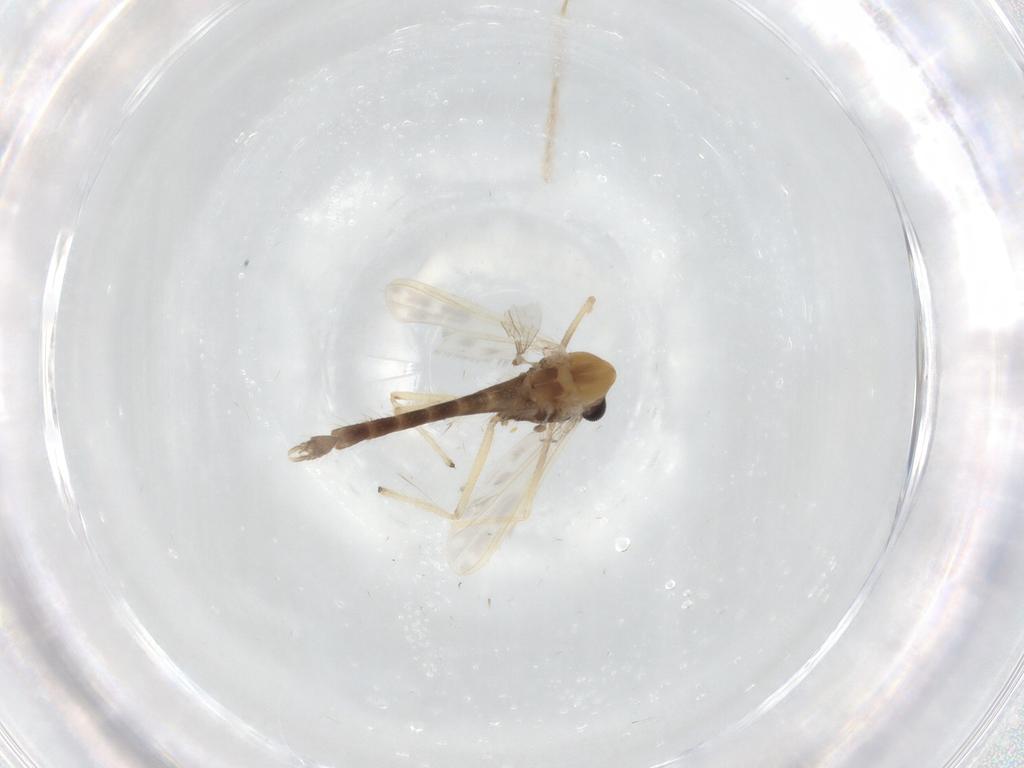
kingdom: Animalia
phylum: Arthropoda
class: Insecta
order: Diptera
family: Chironomidae
